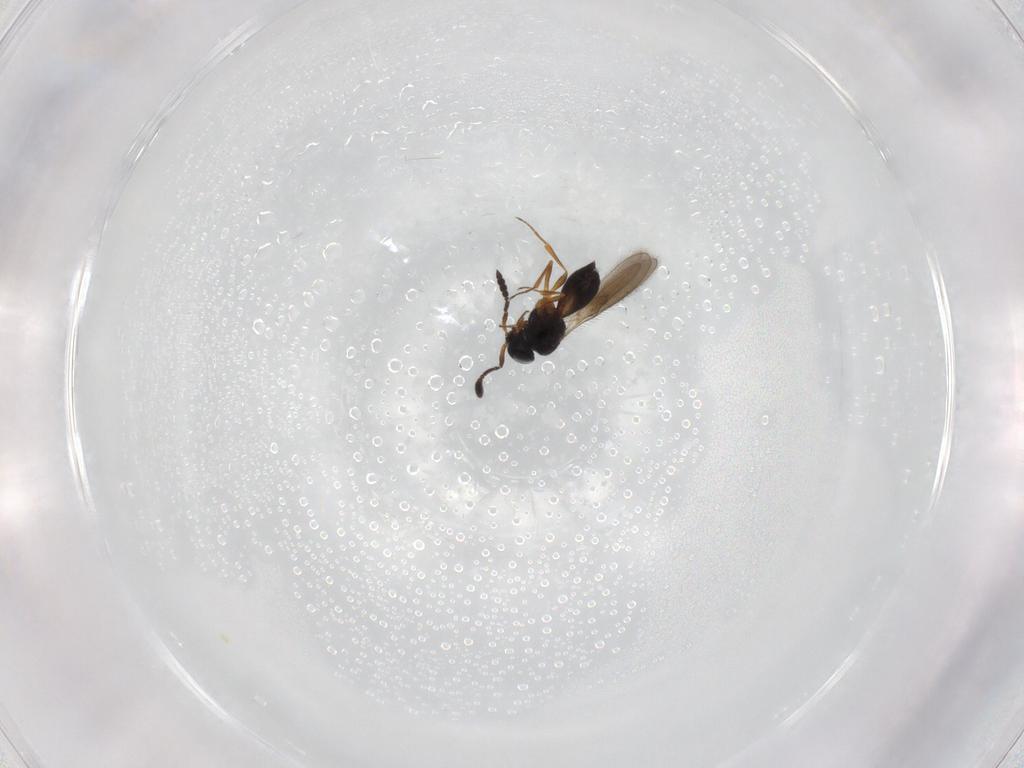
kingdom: Animalia
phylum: Arthropoda
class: Insecta
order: Hymenoptera
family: Scelionidae
